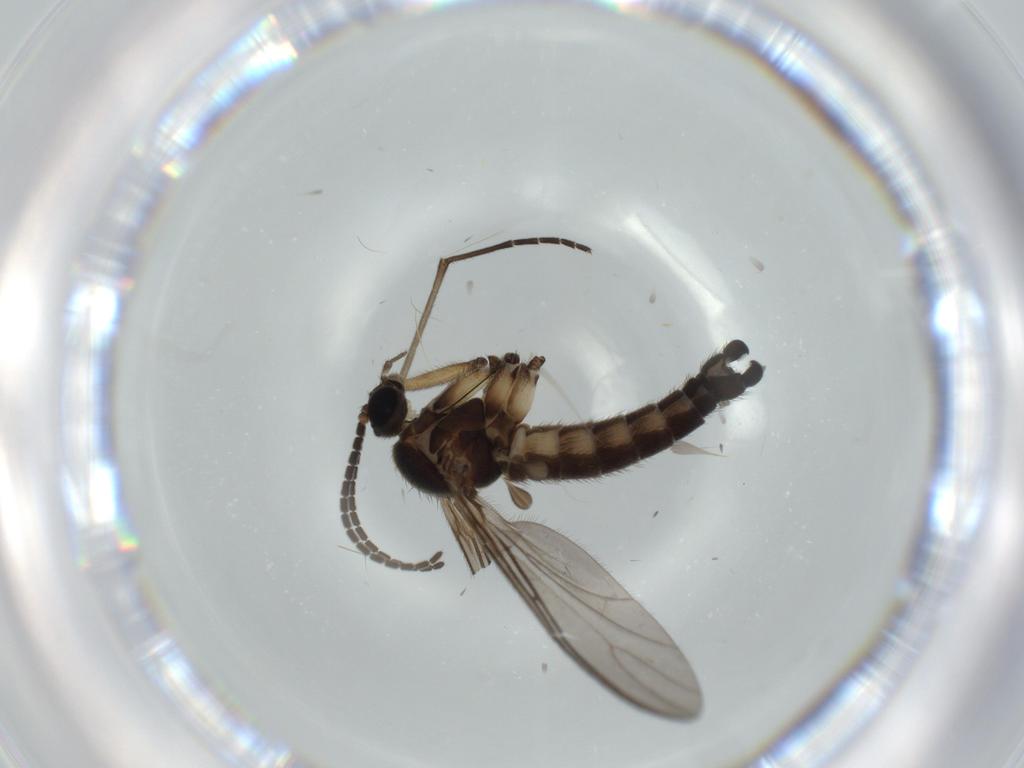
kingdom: Animalia
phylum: Arthropoda
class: Insecta
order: Diptera
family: Sciaridae
